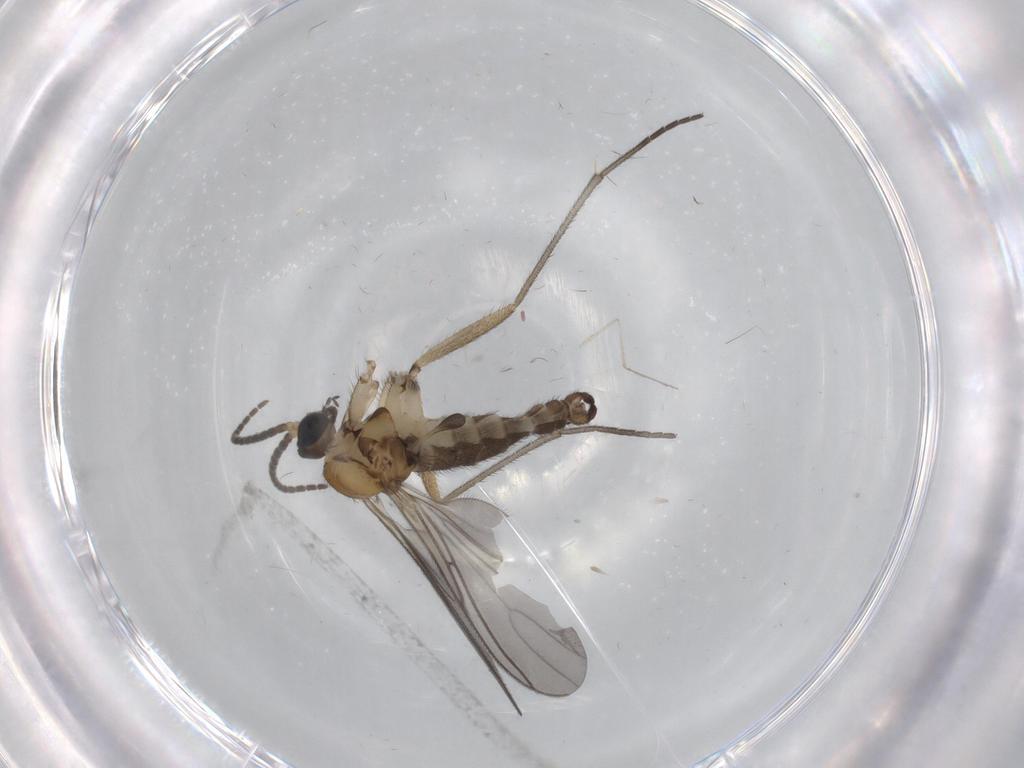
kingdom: Animalia
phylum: Arthropoda
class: Insecta
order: Diptera
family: Sciaridae
